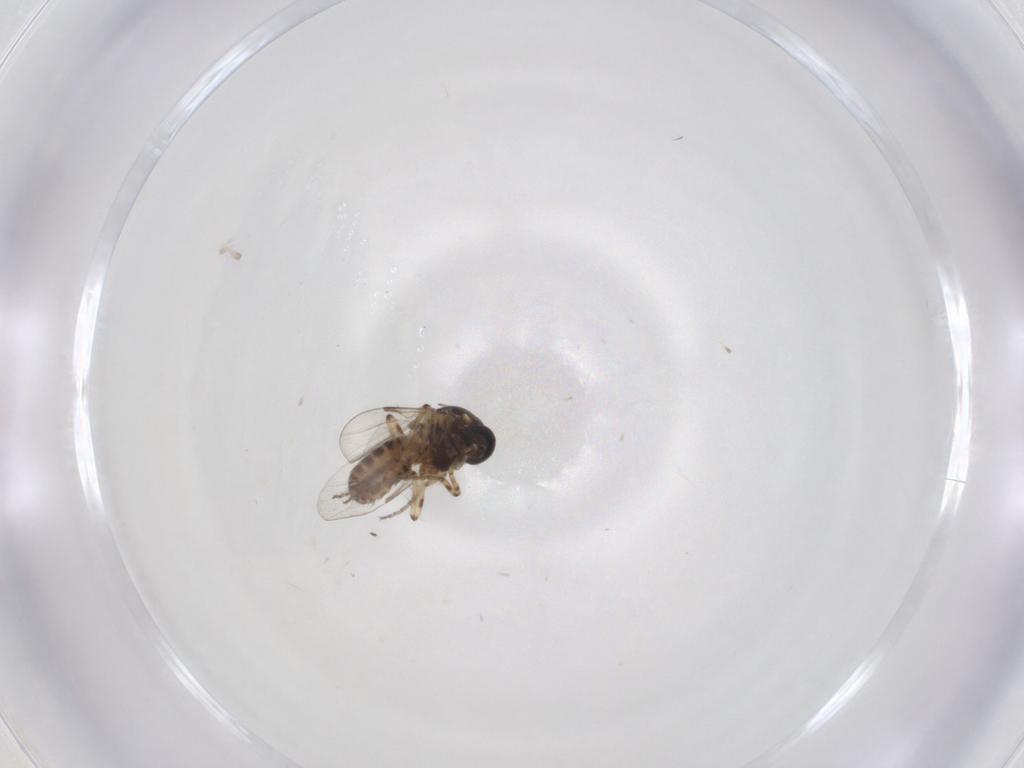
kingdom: Animalia
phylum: Arthropoda
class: Insecta
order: Diptera
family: Ceratopogonidae
